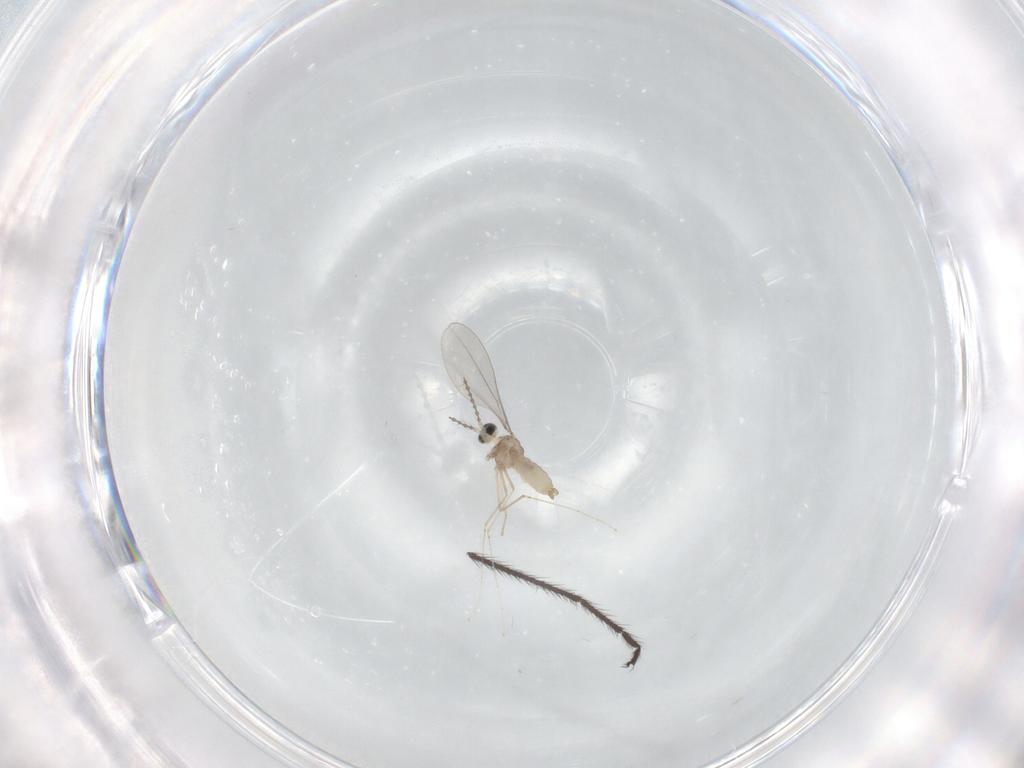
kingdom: Animalia
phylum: Arthropoda
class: Insecta
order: Diptera
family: Limoniidae
